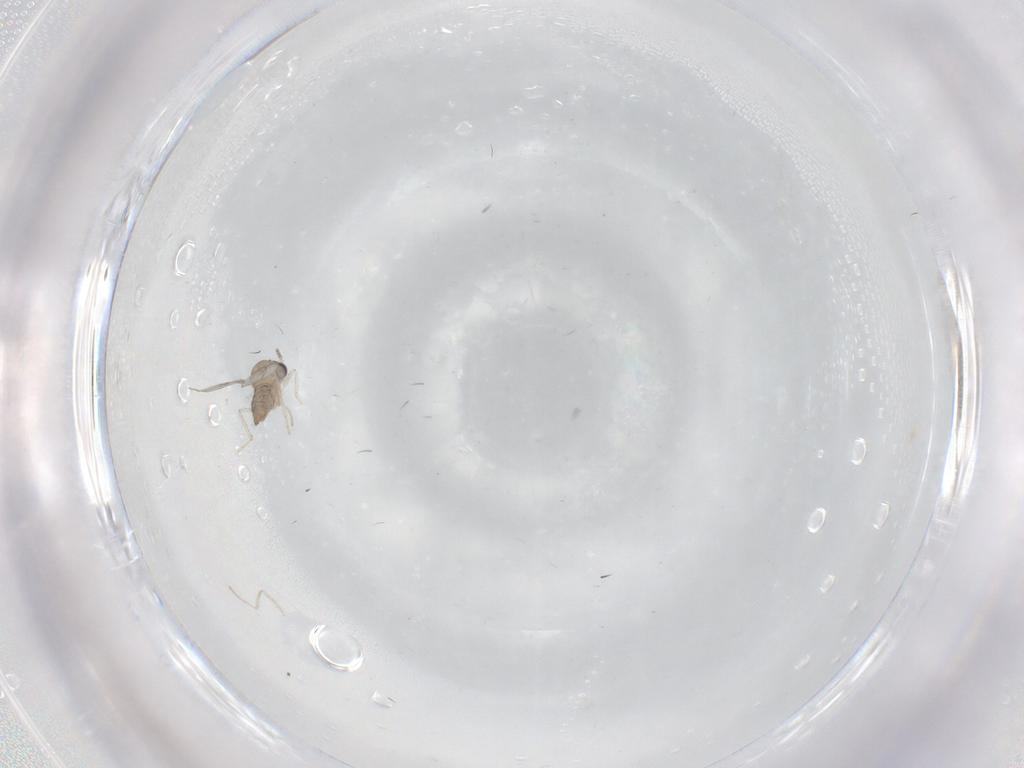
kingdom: Animalia
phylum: Arthropoda
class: Insecta
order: Diptera
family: Cecidomyiidae
